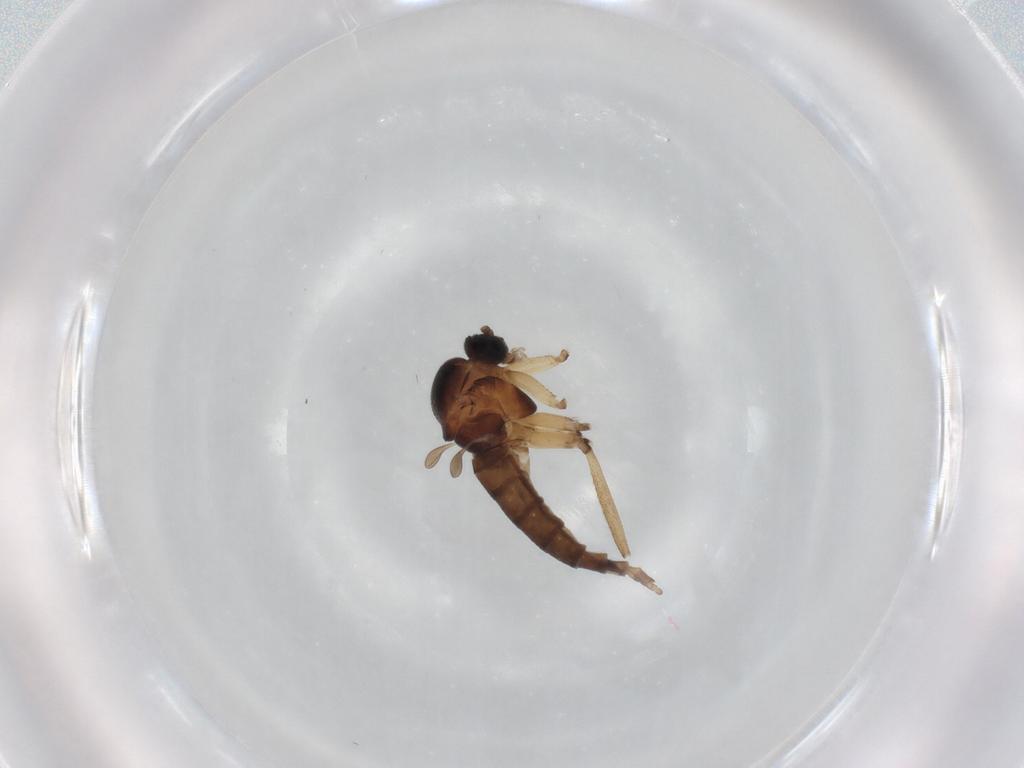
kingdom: Animalia
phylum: Arthropoda
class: Insecta
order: Diptera
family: Sciaridae
